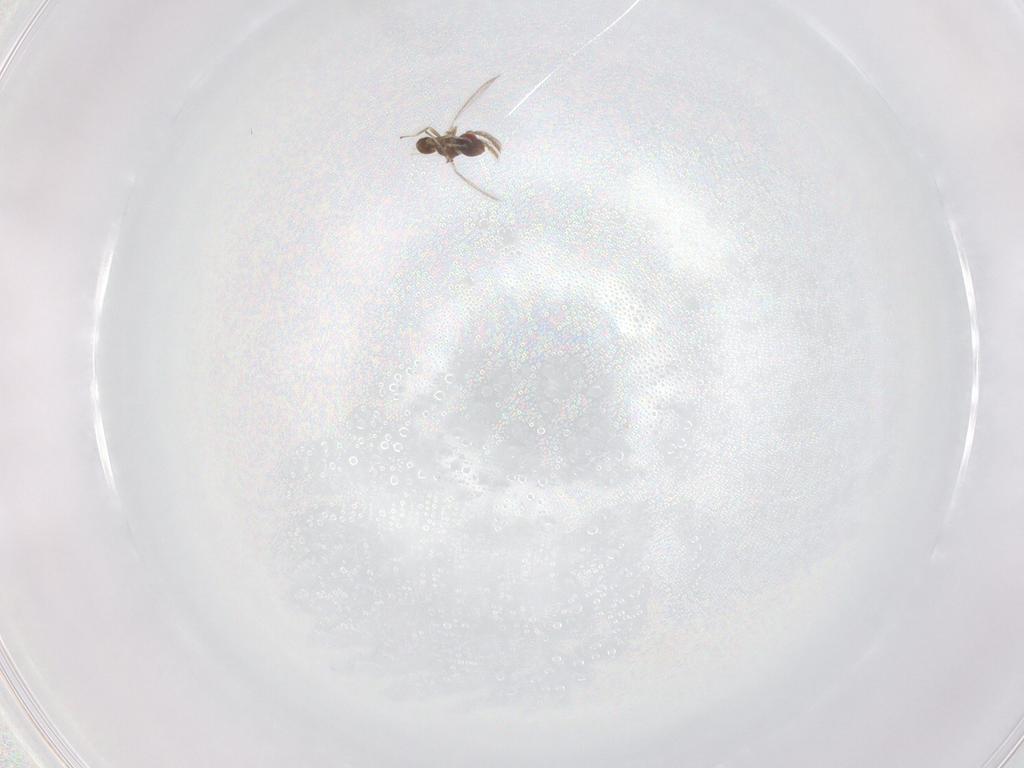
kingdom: Animalia
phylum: Arthropoda
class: Insecta
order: Hymenoptera
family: Eulophidae
